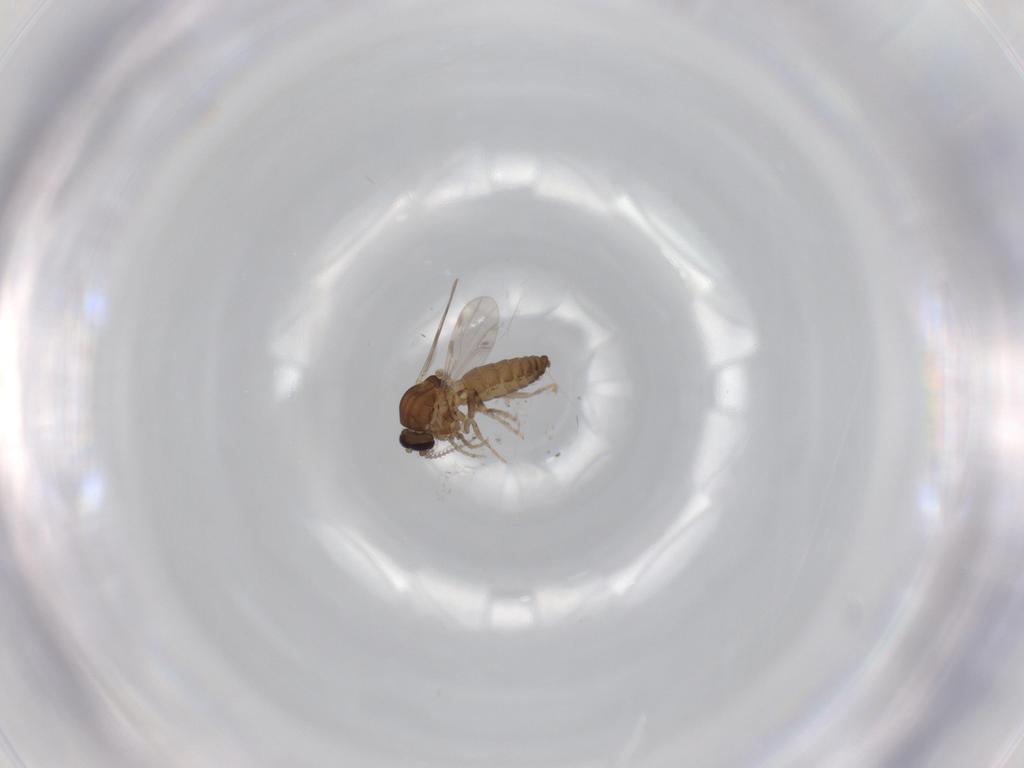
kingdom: Animalia
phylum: Arthropoda
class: Insecta
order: Diptera
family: Ceratopogonidae
